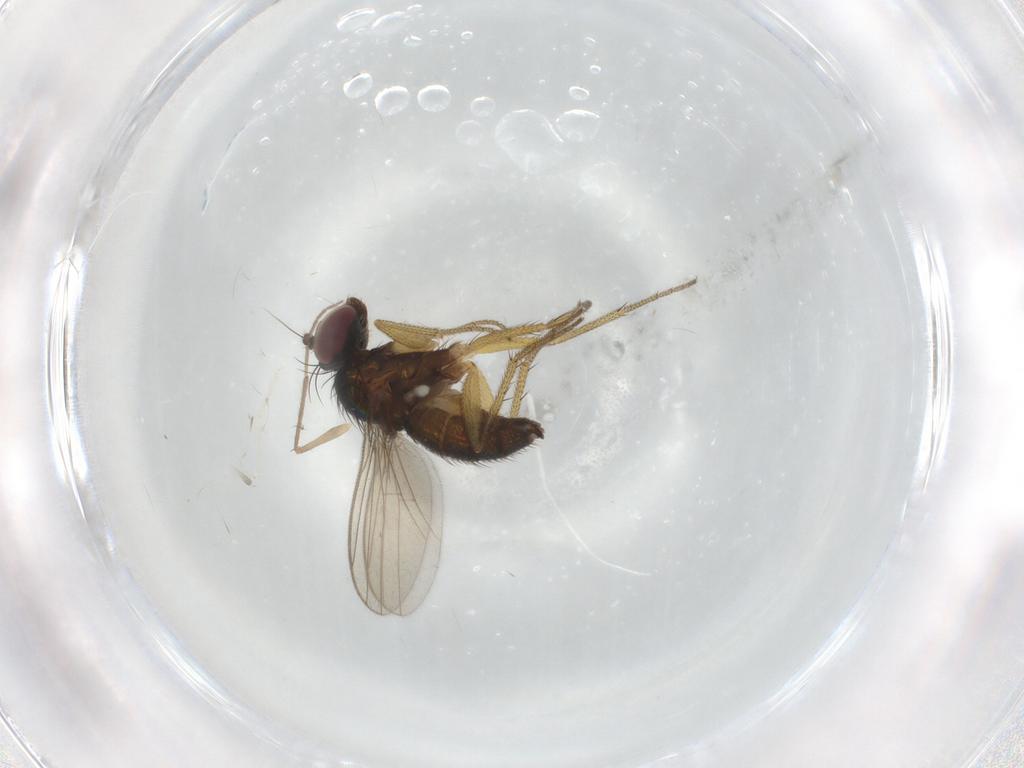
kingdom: Animalia
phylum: Arthropoda
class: Insecta
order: Diptera
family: Dolichopodidae
